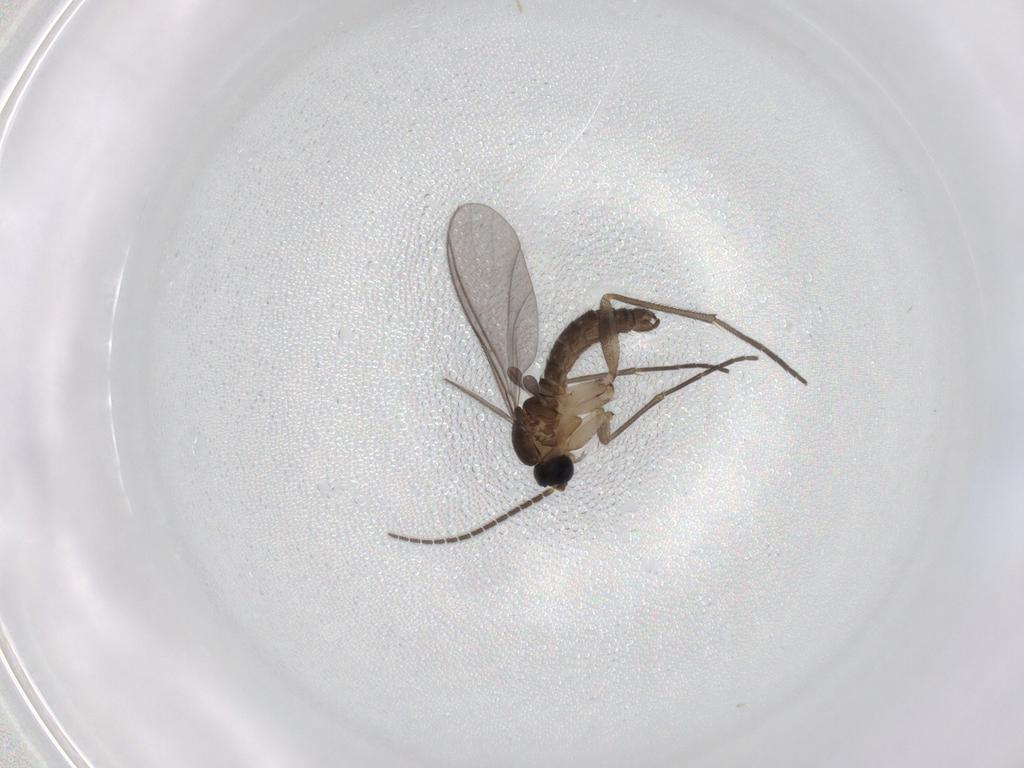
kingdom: Animalia
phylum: Arthropoda
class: Insecta
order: Diptera
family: Sciaridae
